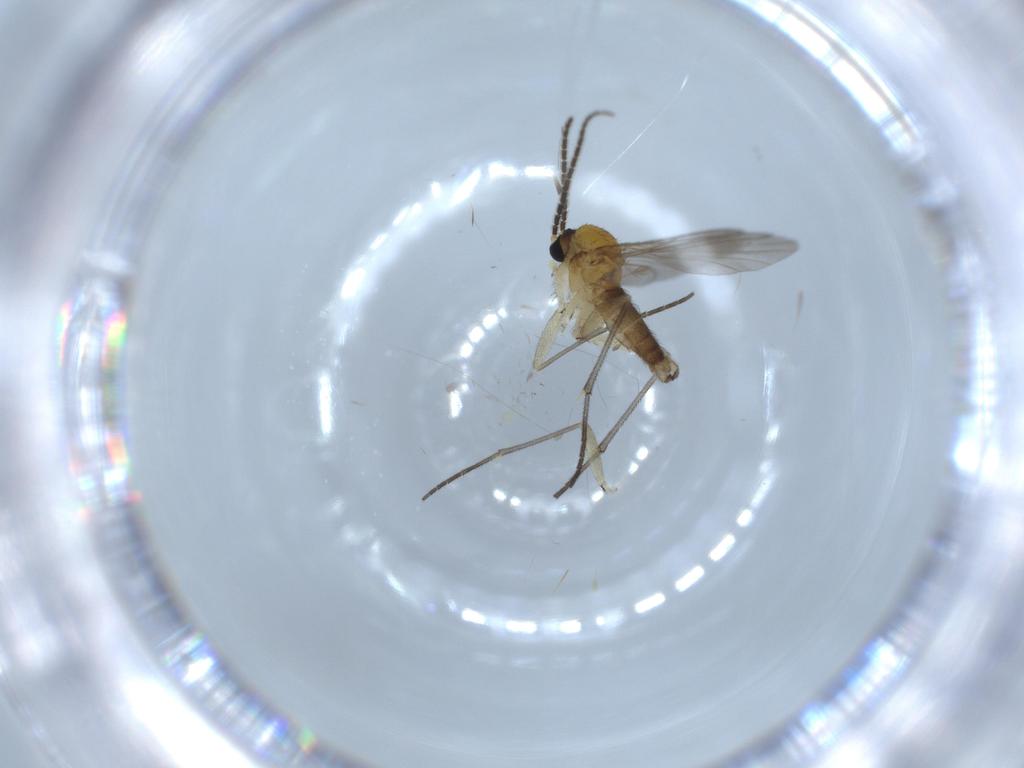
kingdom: Animalia
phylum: Arthropoda
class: Insecta
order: Diptera
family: Sciaridae
